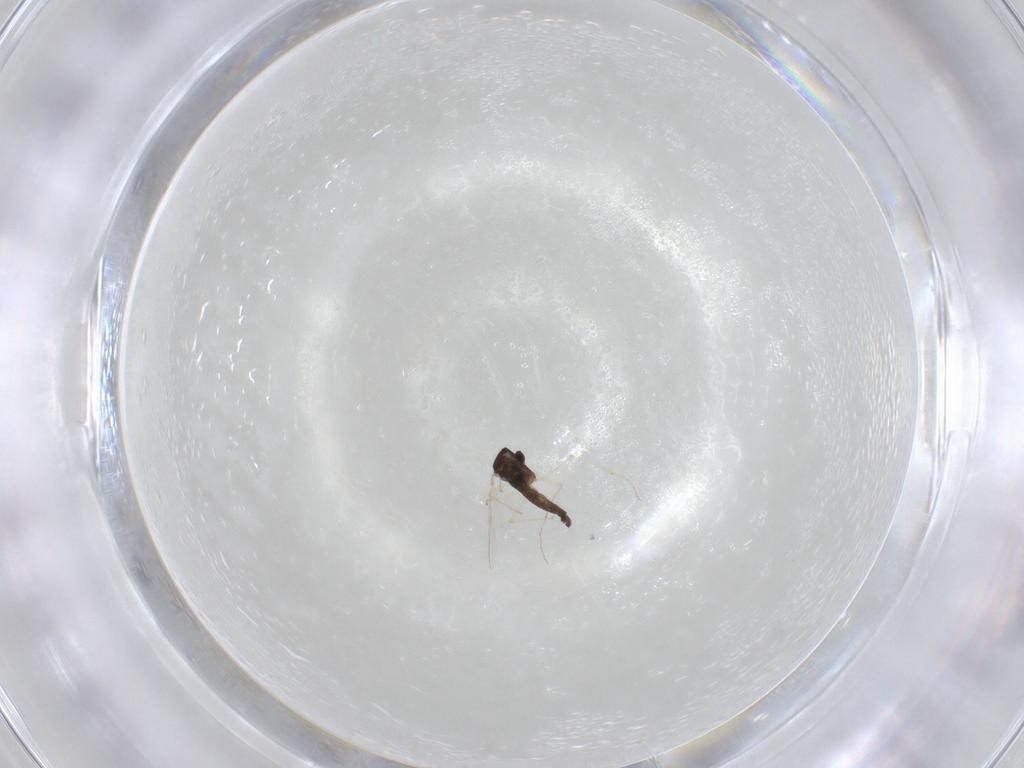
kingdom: Animalia
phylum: Arthropoda
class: Insecta
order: Diptera
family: Chironomidae
